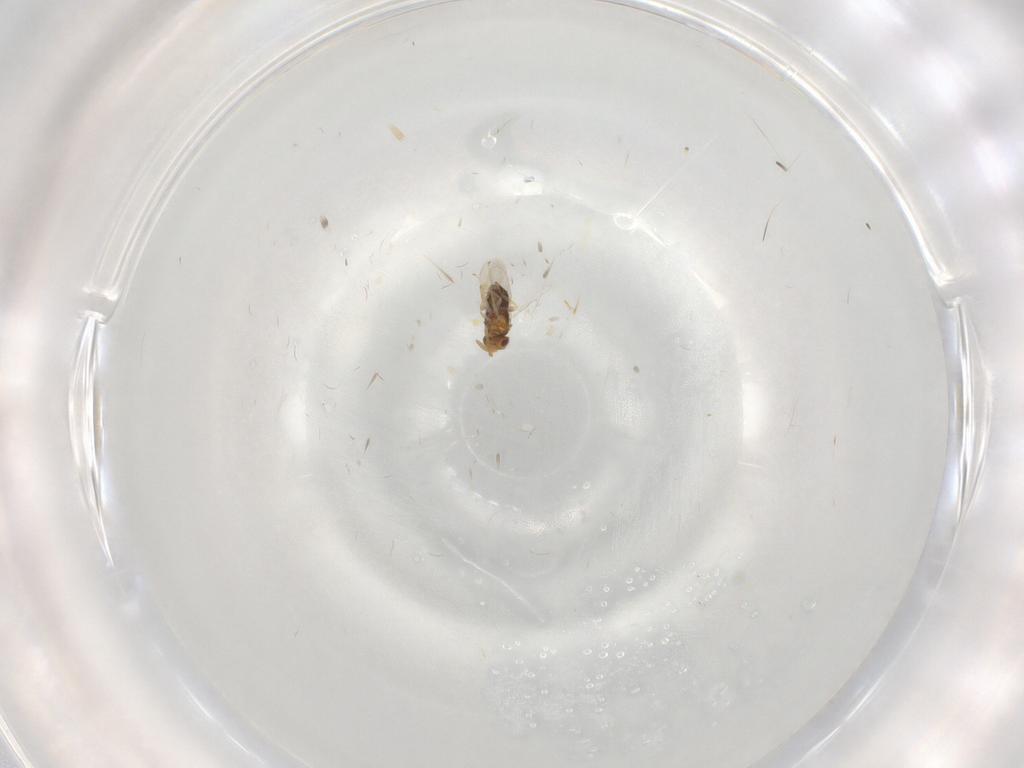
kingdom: Animalia
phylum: Arthropoda
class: Insecta
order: Hymenoptera
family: Aphelinidae
